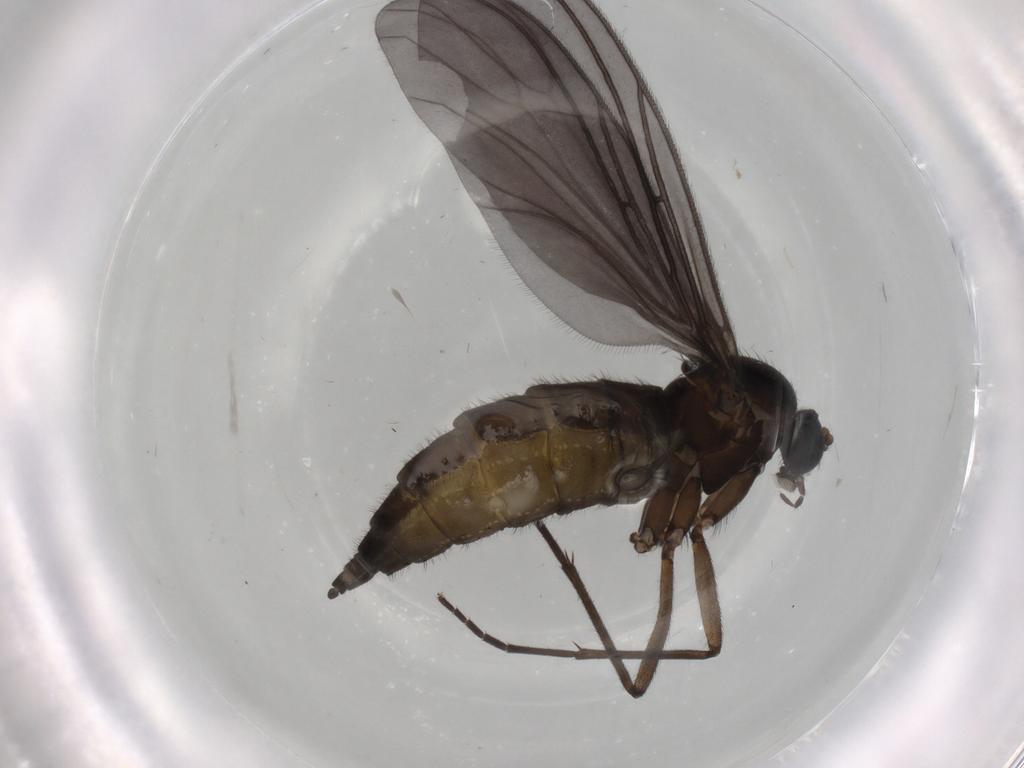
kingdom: Animalia
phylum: Arthropoda
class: Insecta
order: Diptera
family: Sciaridae
